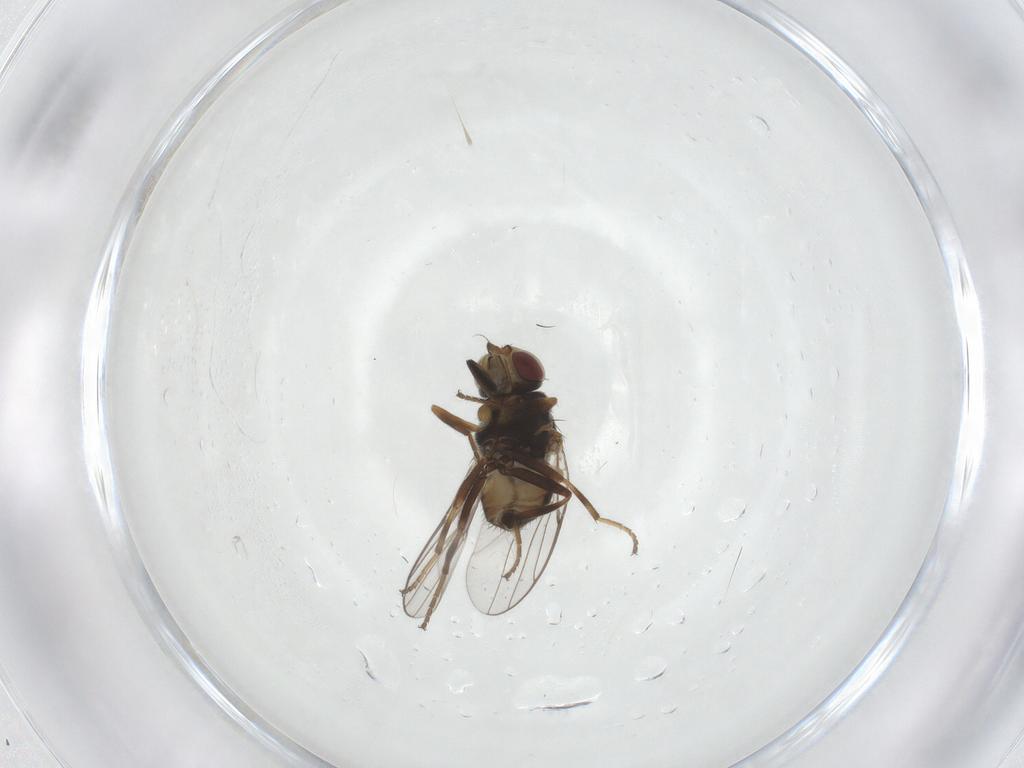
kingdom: Animalia
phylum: Arthropoda
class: Insecta
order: Diptera
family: Chloropidae
